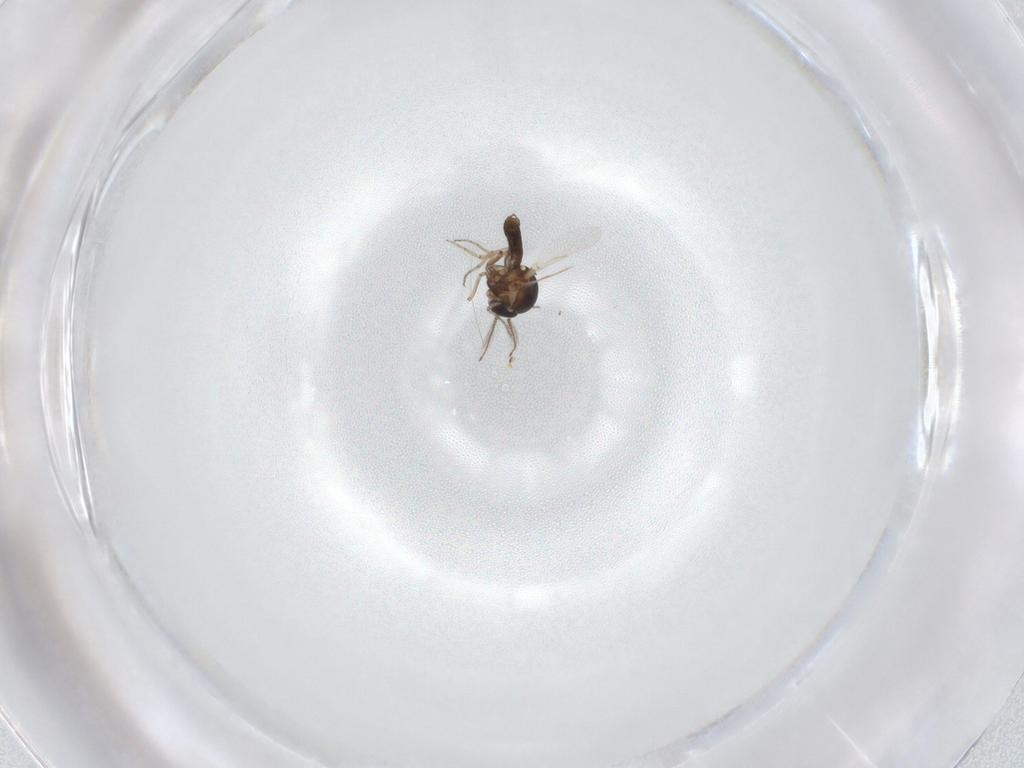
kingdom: Animalia
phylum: Arthropoda
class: Insecta
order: Diptera
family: Ceratopogonidae
